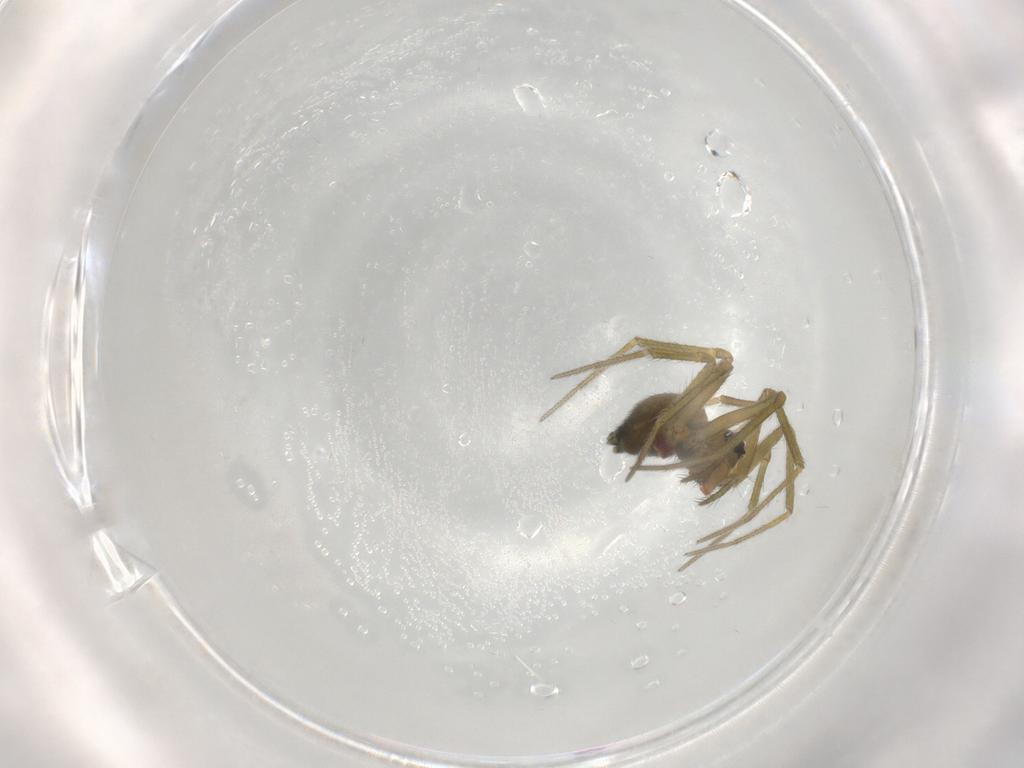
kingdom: Animalia
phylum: Arthropoda
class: Arachnida
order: Araneae
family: Linyphiidae
